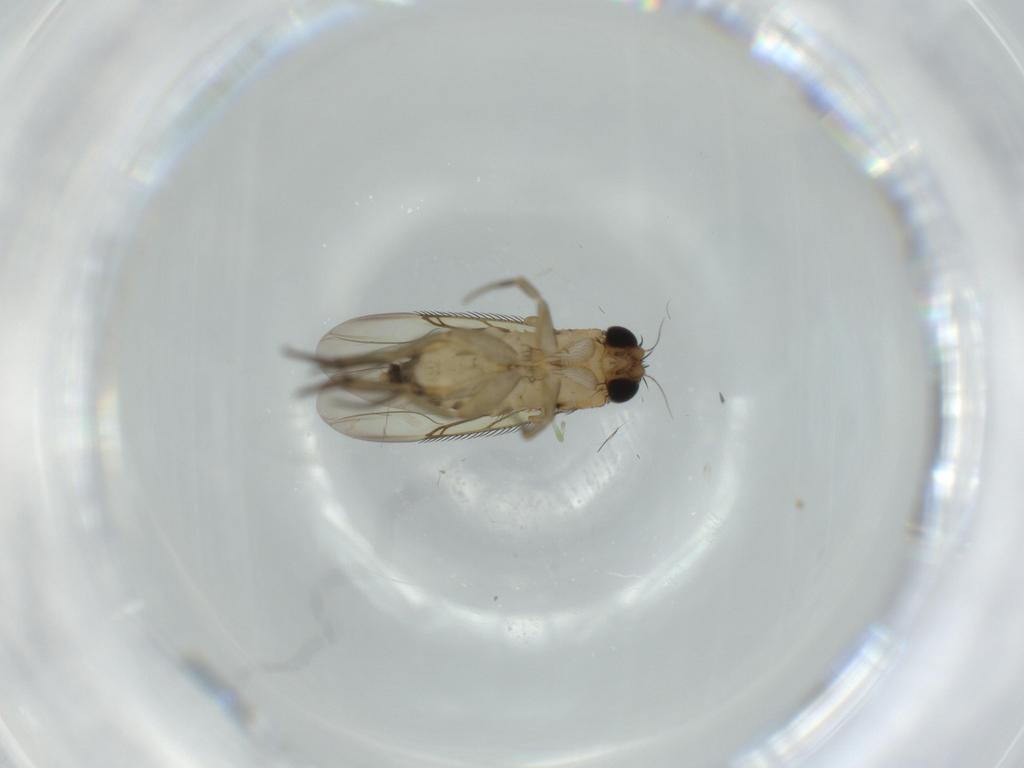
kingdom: Animalia
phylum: Arthropoda
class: Insecta
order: Diptera
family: Phoridae
